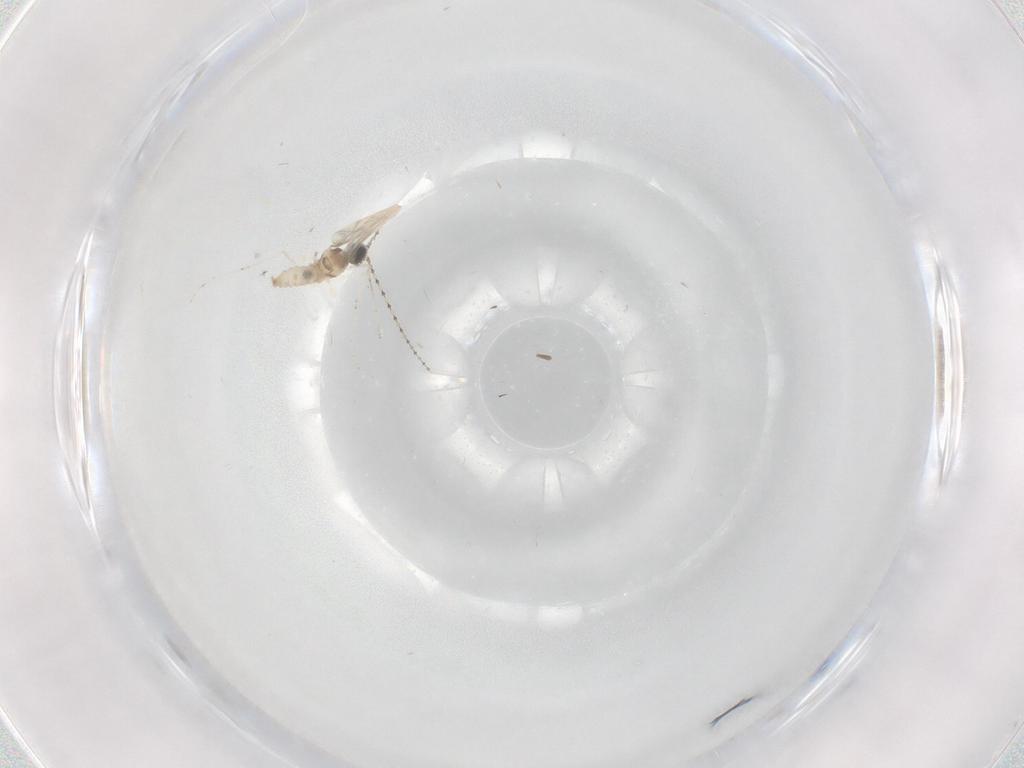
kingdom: Animalia
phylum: Arthropoda
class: Insecta
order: Diptera
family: Cecidomyiidae
